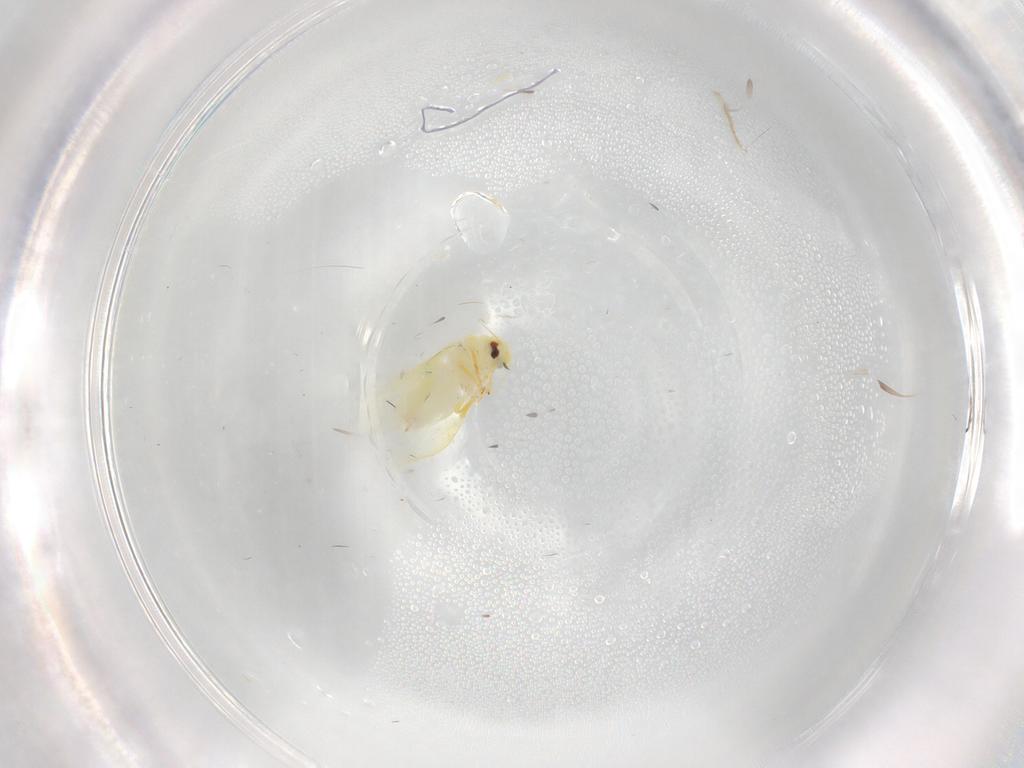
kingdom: Animalia
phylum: Arthropoda
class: Insecta
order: Hemiptera
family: Aleyrodidae
